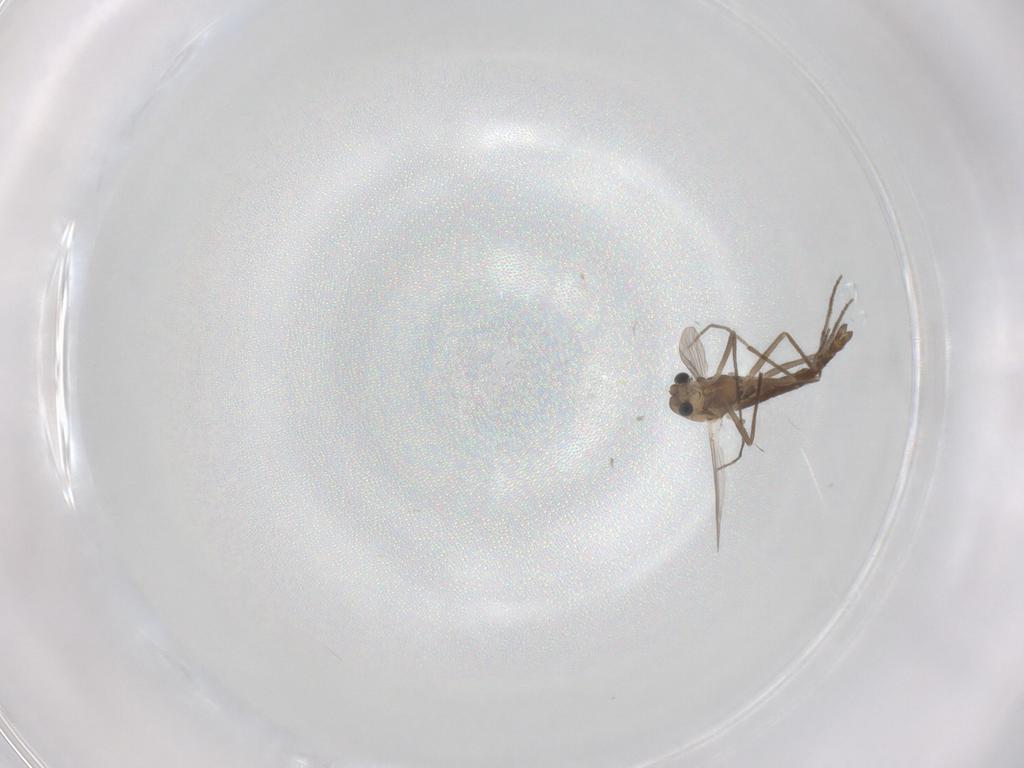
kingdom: Animalia
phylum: Arthropoda
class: Insecta
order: Diptera
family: Chironomidae
